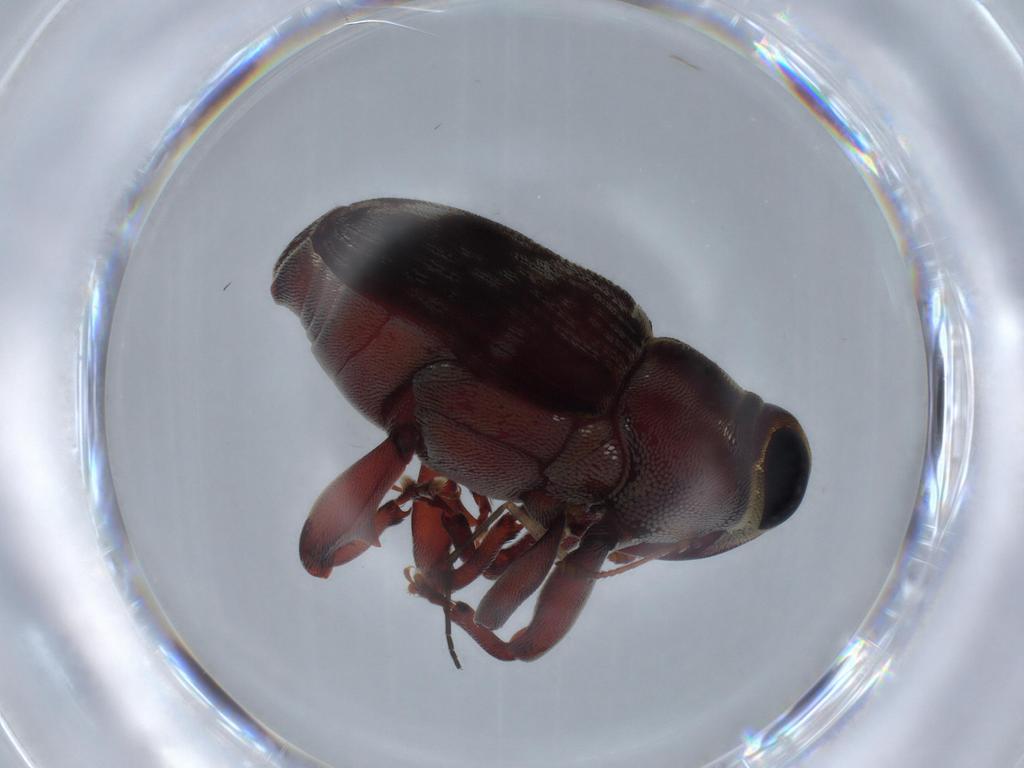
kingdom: Animalia
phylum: Arthropoda
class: Insecta
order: Coleoptera
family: Curculionidae
